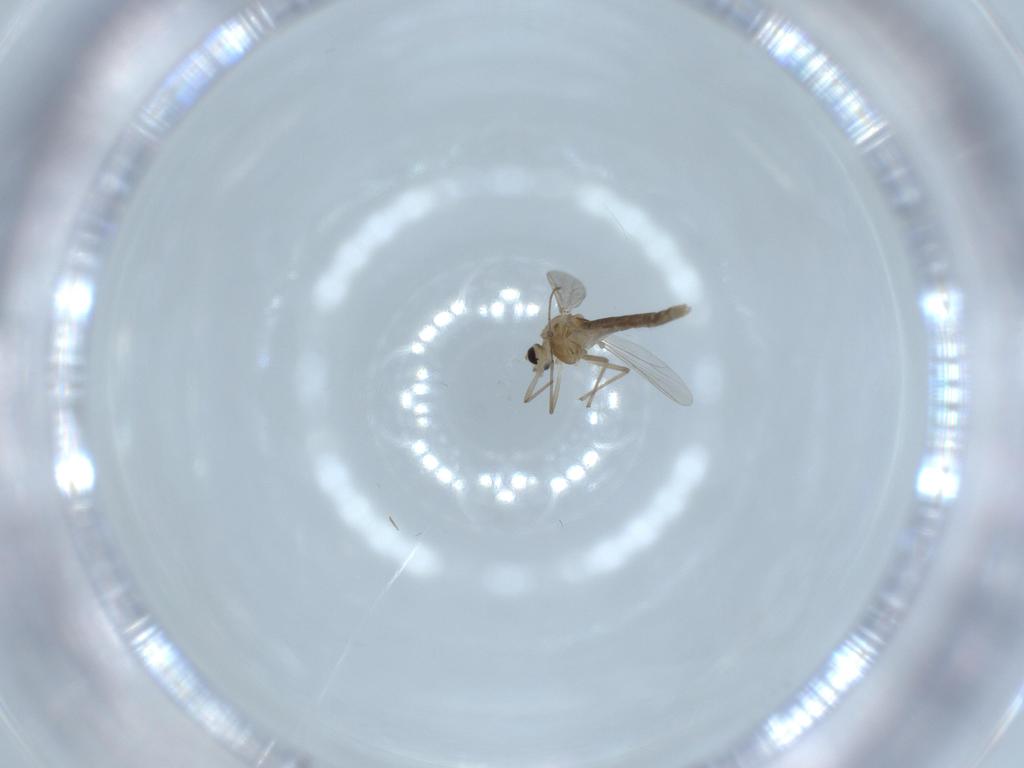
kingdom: Animalia
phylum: Arthropoda
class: Insecta
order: Diptera
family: Chironomidae
